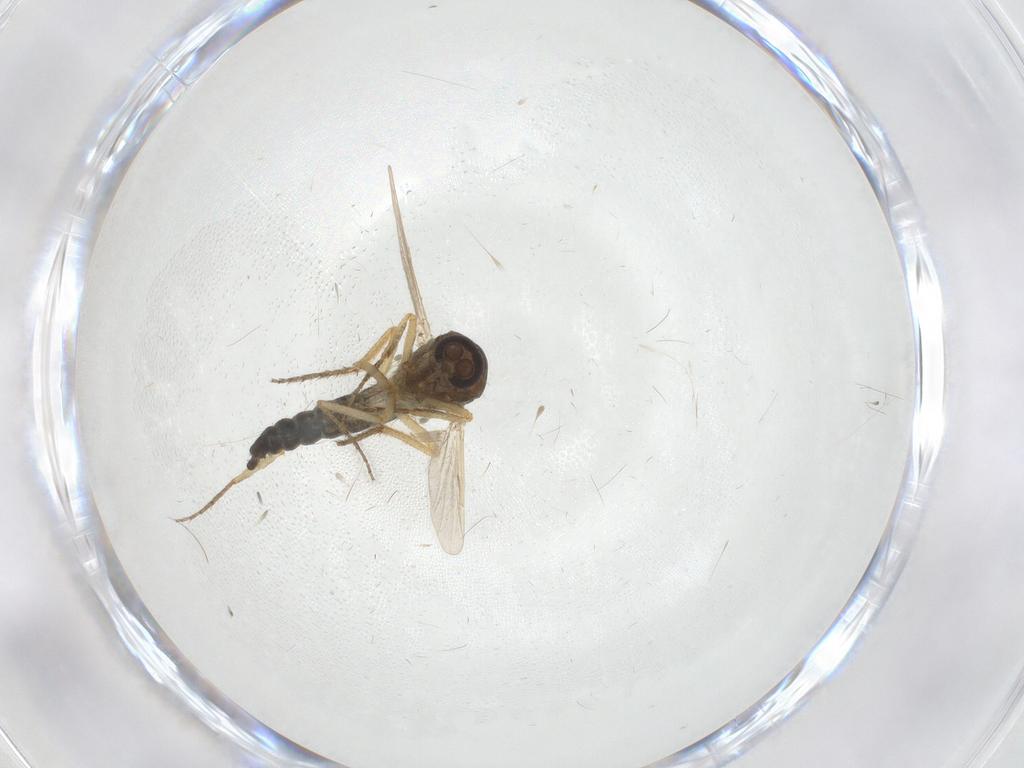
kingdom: Animalia
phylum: Arthropoda
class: Insecta
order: Diptera
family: Ceratopogonidae
